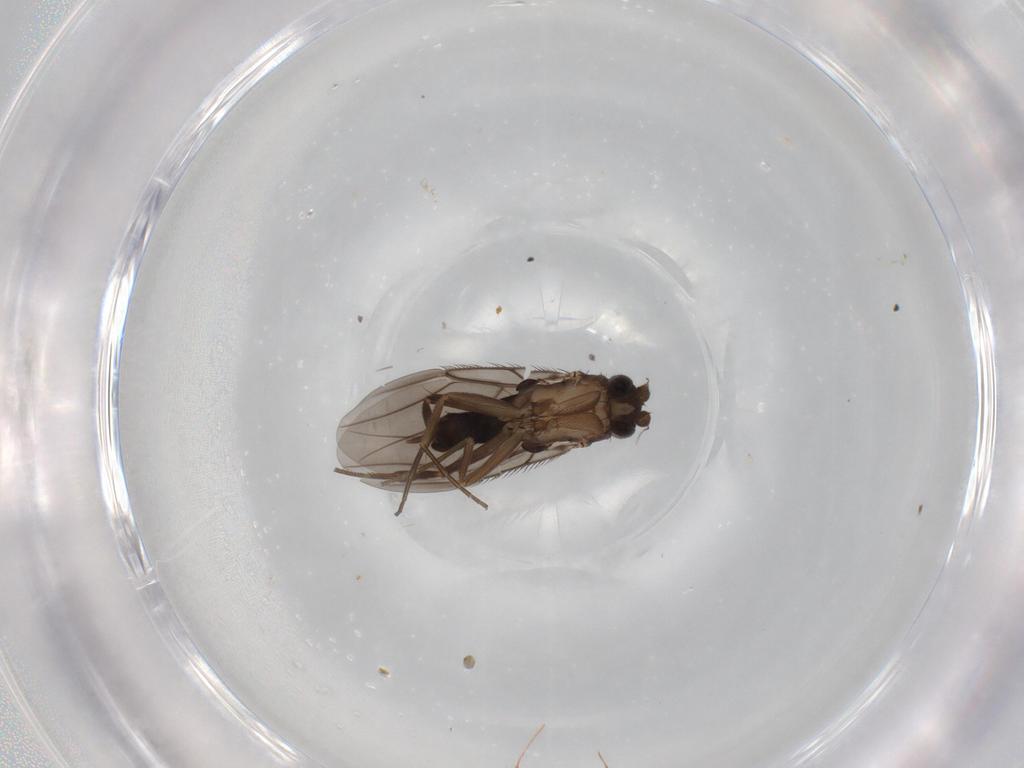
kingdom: Animalia
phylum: Arthropoda
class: Insecta
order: Diptera
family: Phoridae
